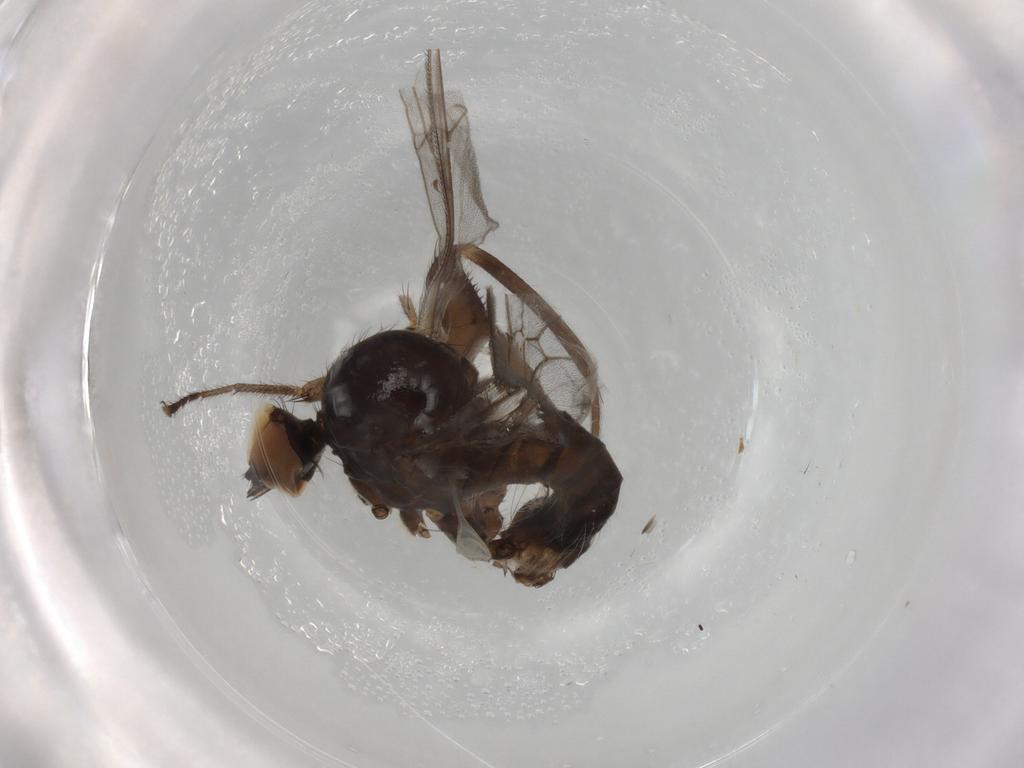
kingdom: Animalia
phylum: Arthropoda
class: Insecta
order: Diptera
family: Hybotidae
